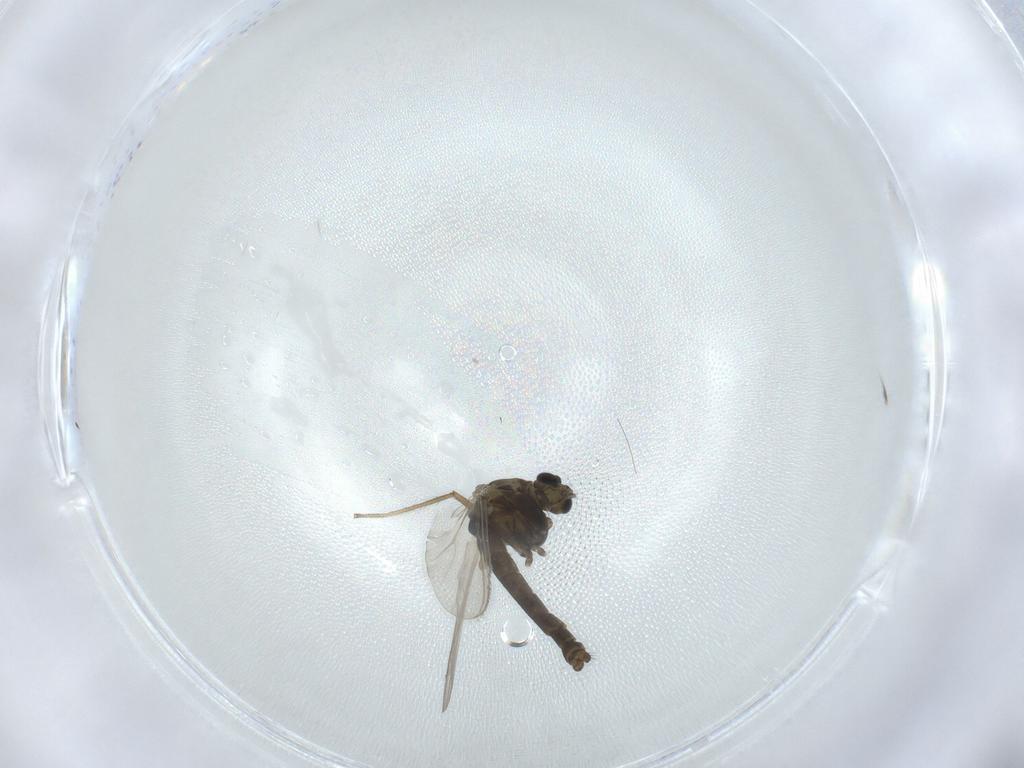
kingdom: Animalia
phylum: Arthropoda
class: Insecta
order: Diptera
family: Chironomidae
